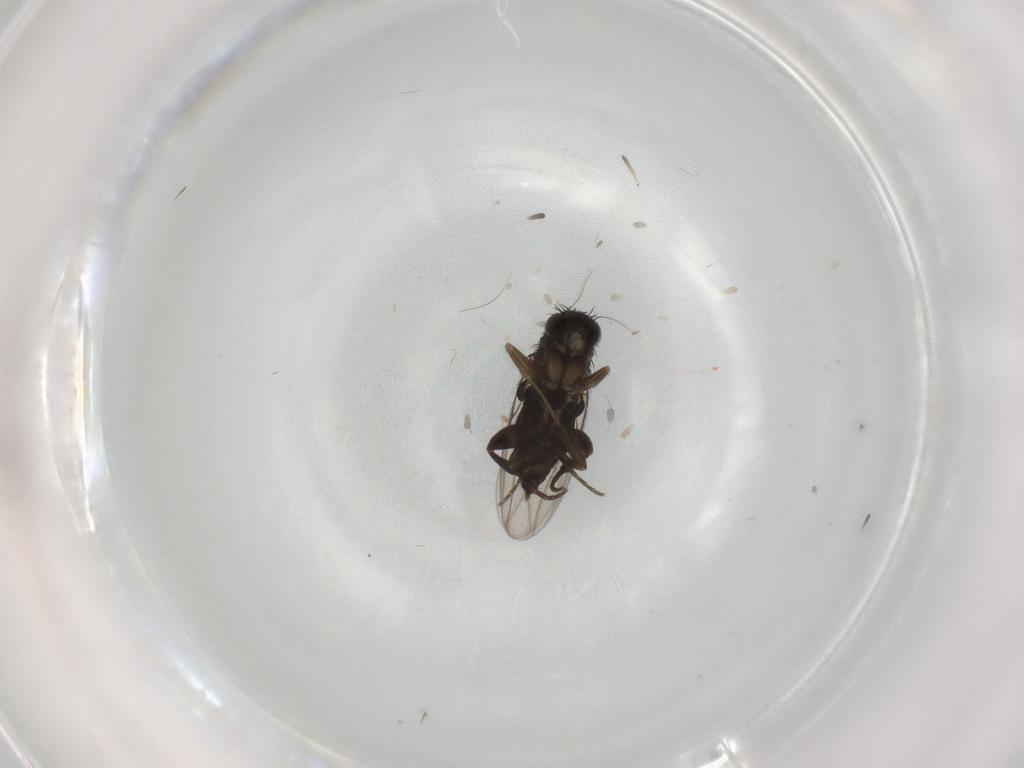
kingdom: Animalia
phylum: Arthropoda
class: Insecta
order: Diptera
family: Phoridae
